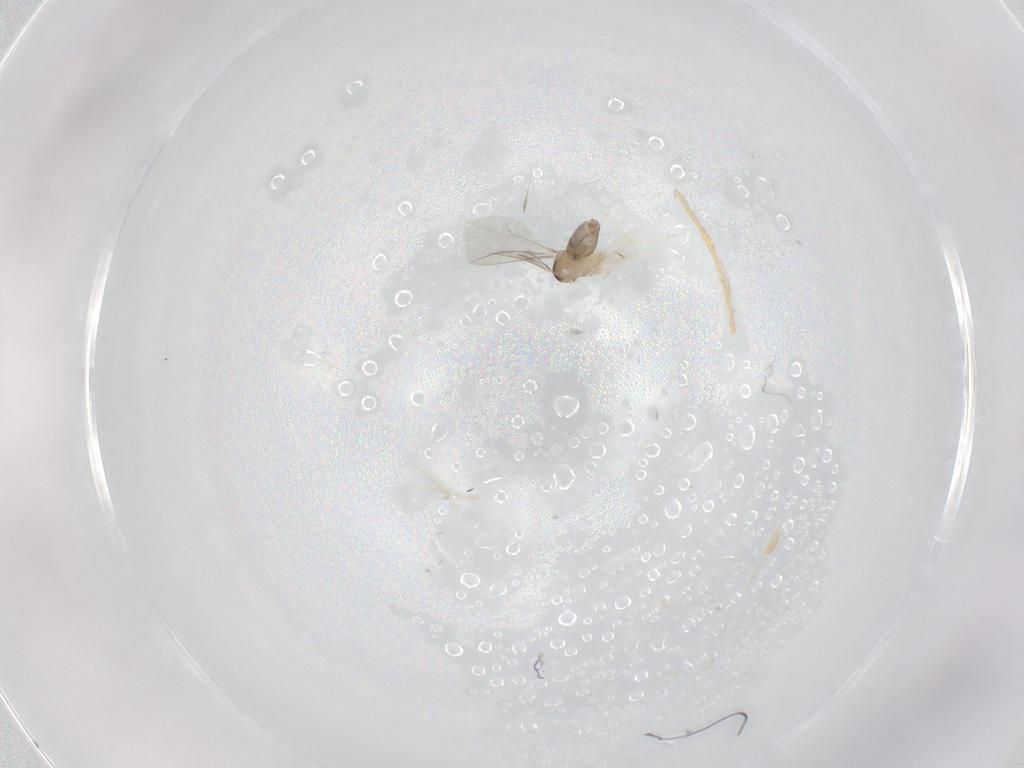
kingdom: Animalia
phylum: Arthropoda
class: Insecta
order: Diptera
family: Cecidomyiidae
